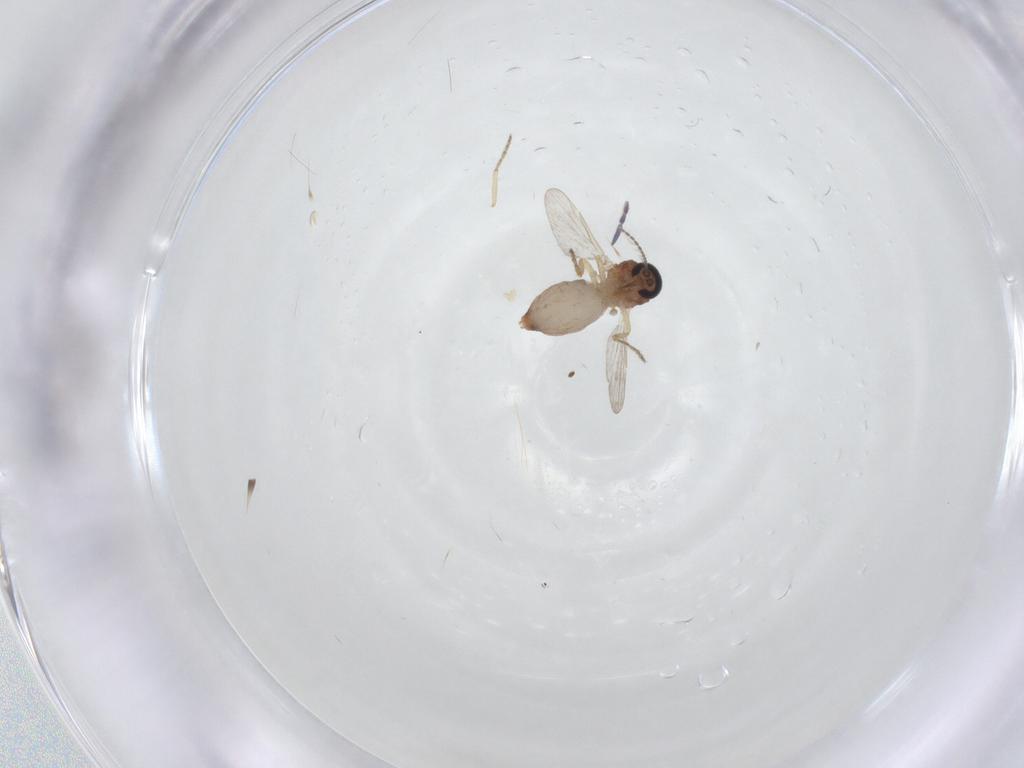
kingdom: Animalia
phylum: Arthropoda
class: Insecta
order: Diptera
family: Ceratopogonidae
